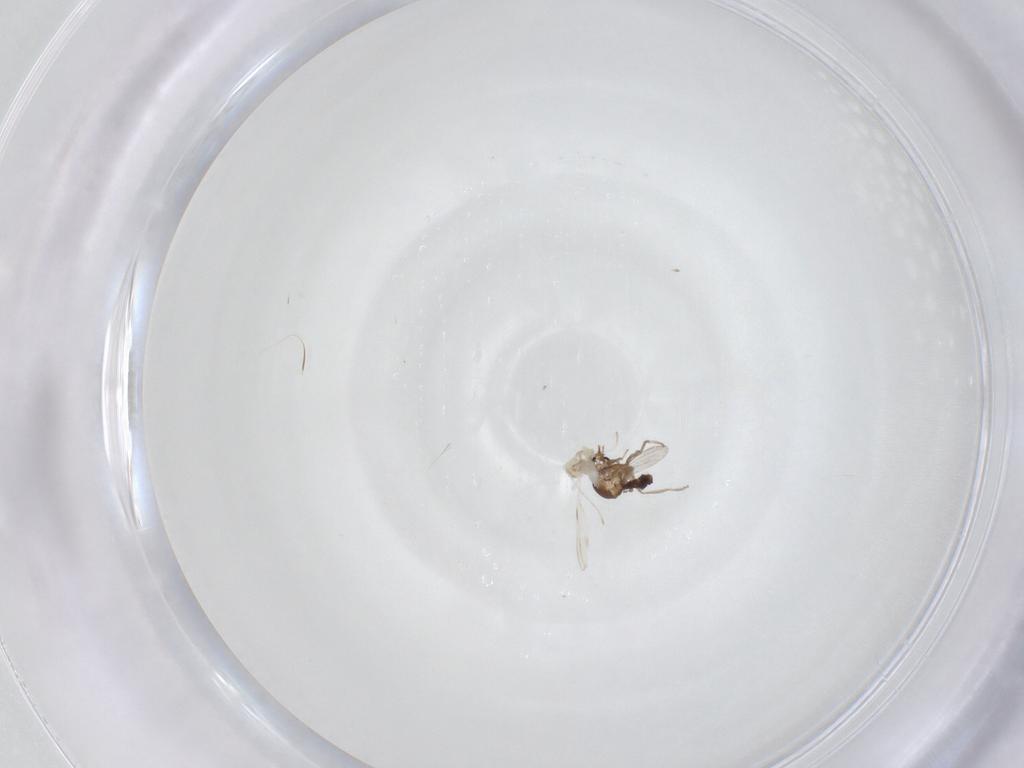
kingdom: Animalia
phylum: Arthropoda
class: Insecta
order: Diptera
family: Cecidomyiidae
